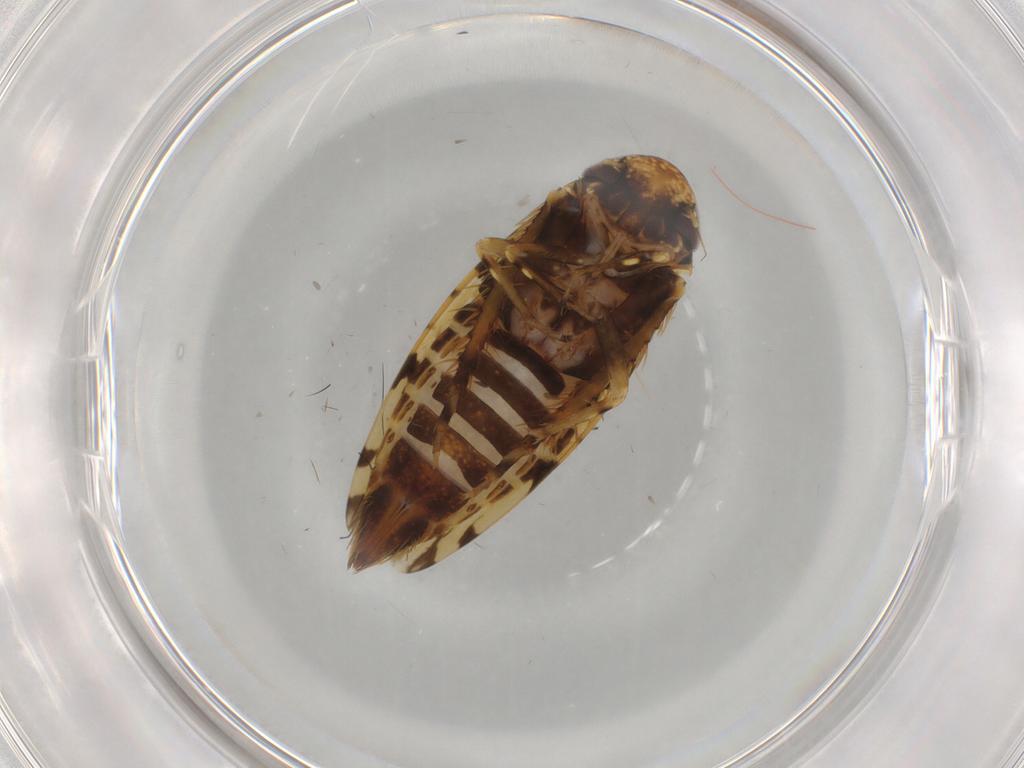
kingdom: Animalia
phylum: Arthropoda
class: Insecta
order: Hemiptera
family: Cicadellidae
